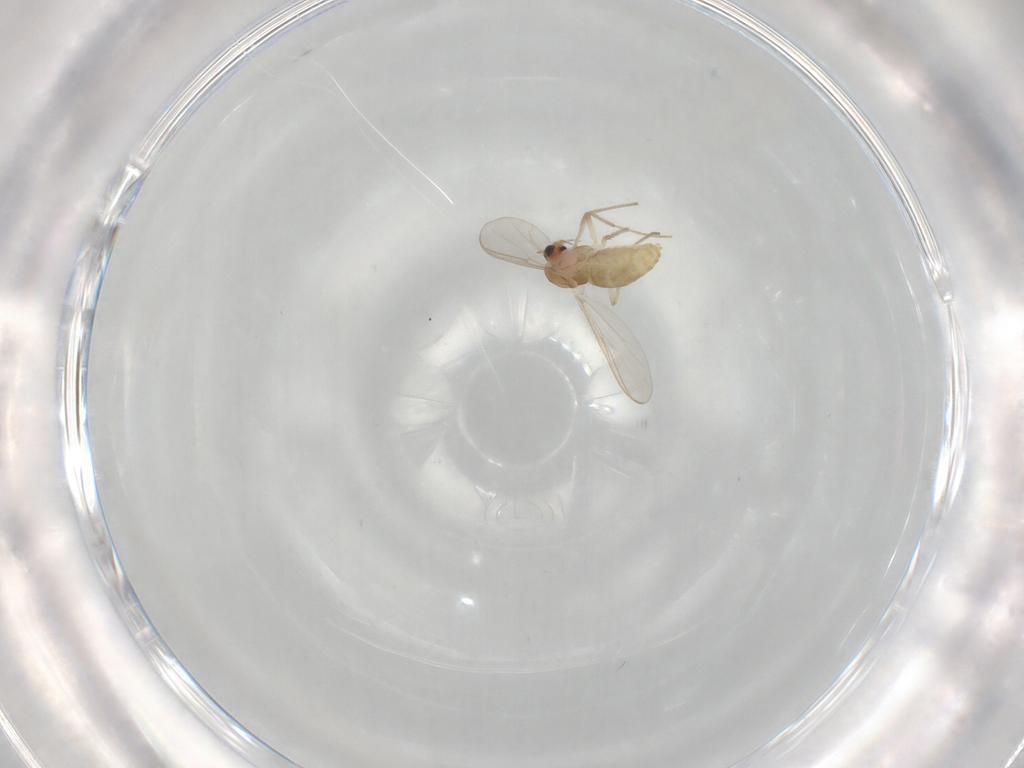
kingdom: Animalia
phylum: Arthropoda
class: Insecta
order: Diptera
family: Chironomidae
